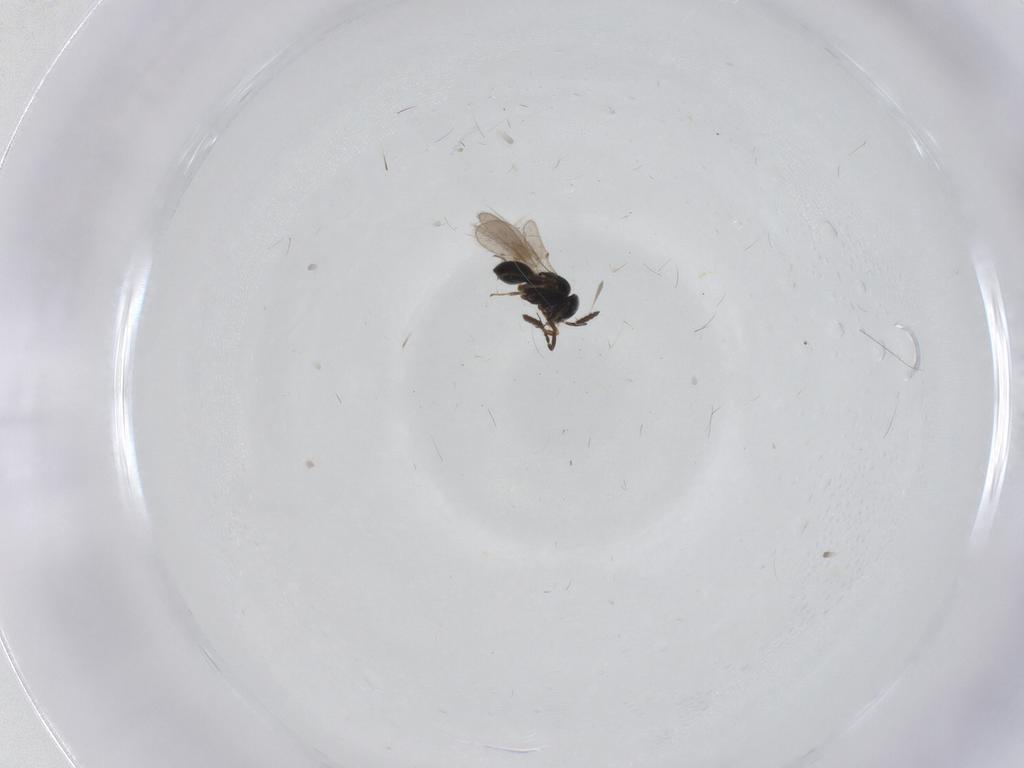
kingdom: Animalia
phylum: Arthropoda
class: Insecta
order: Hymenoptera
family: Scelionidae
